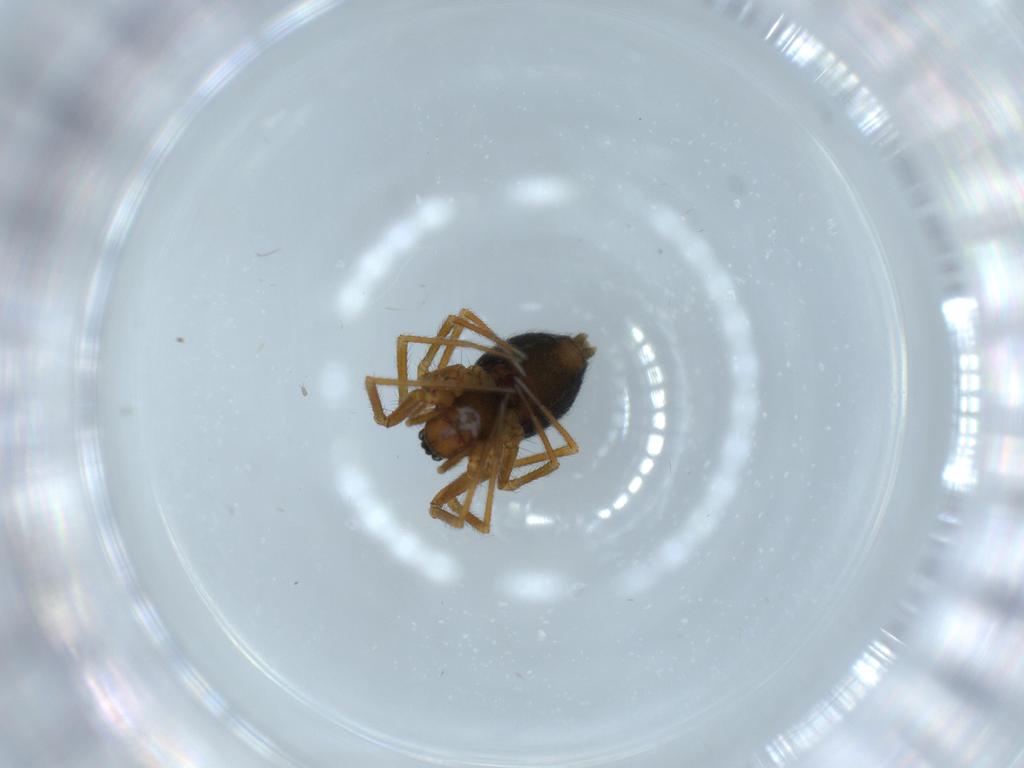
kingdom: Animalia
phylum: Arthropoda
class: Arachnida
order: Araneae
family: Linyphiidae
